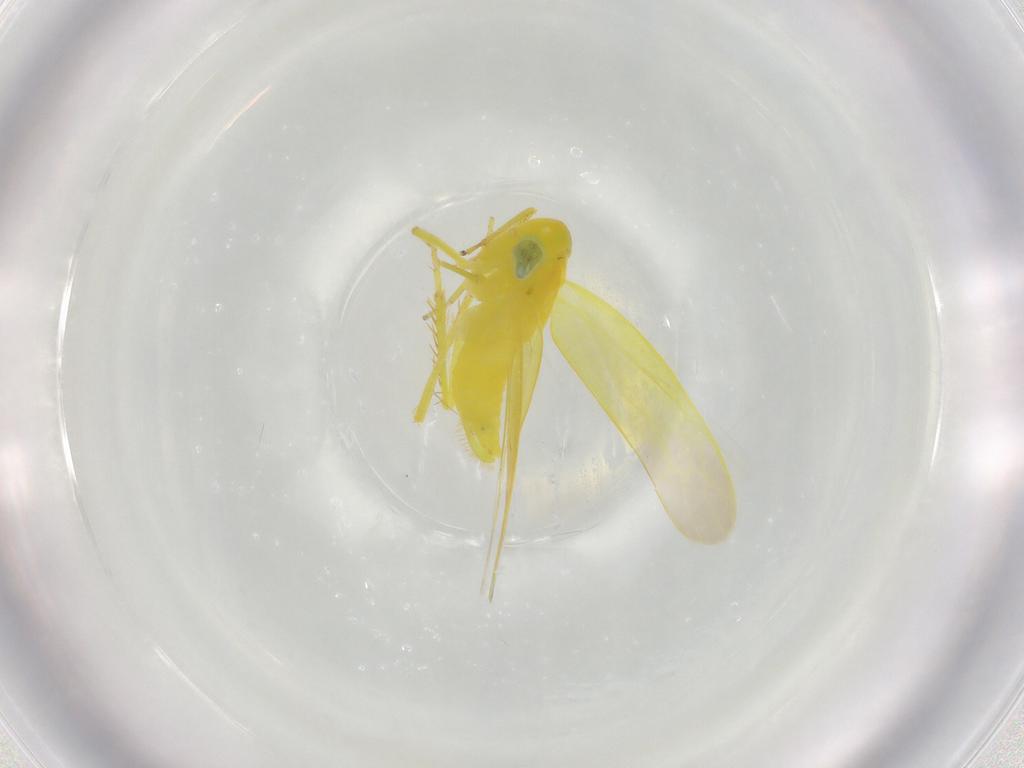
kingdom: Animalia
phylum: Arthropoda
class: Insecta
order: Hemiptera
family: Cicadellidae
